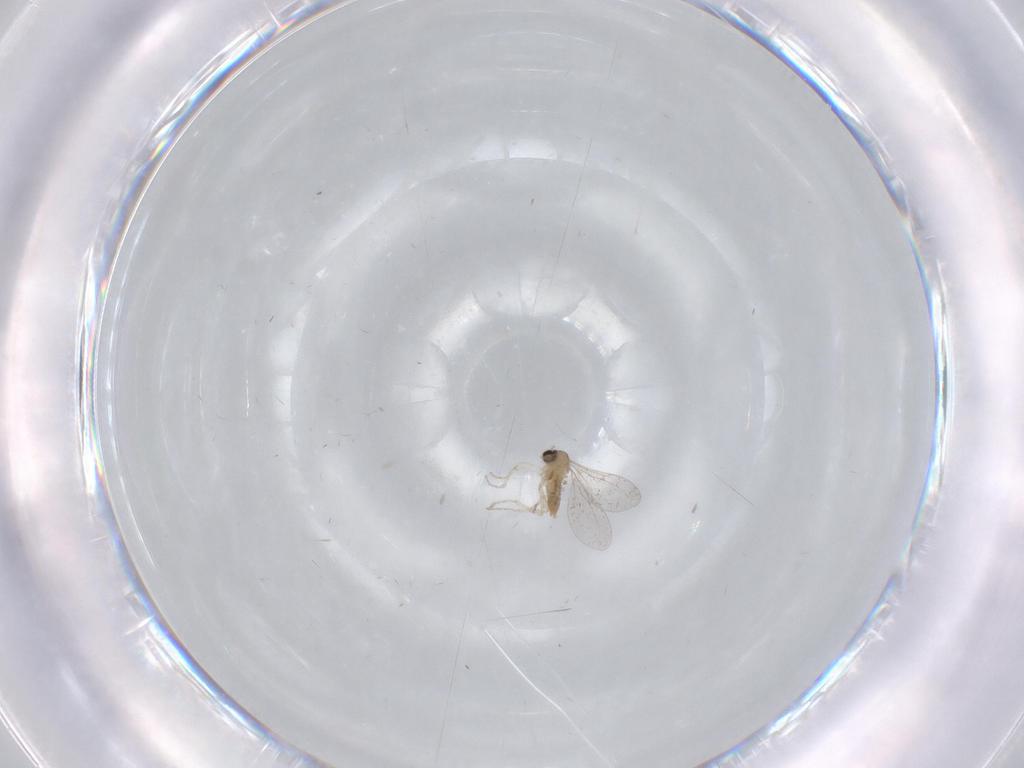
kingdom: Animalia
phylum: Arthropoda
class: Insecta
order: Diptera
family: Cecidomyiidae
